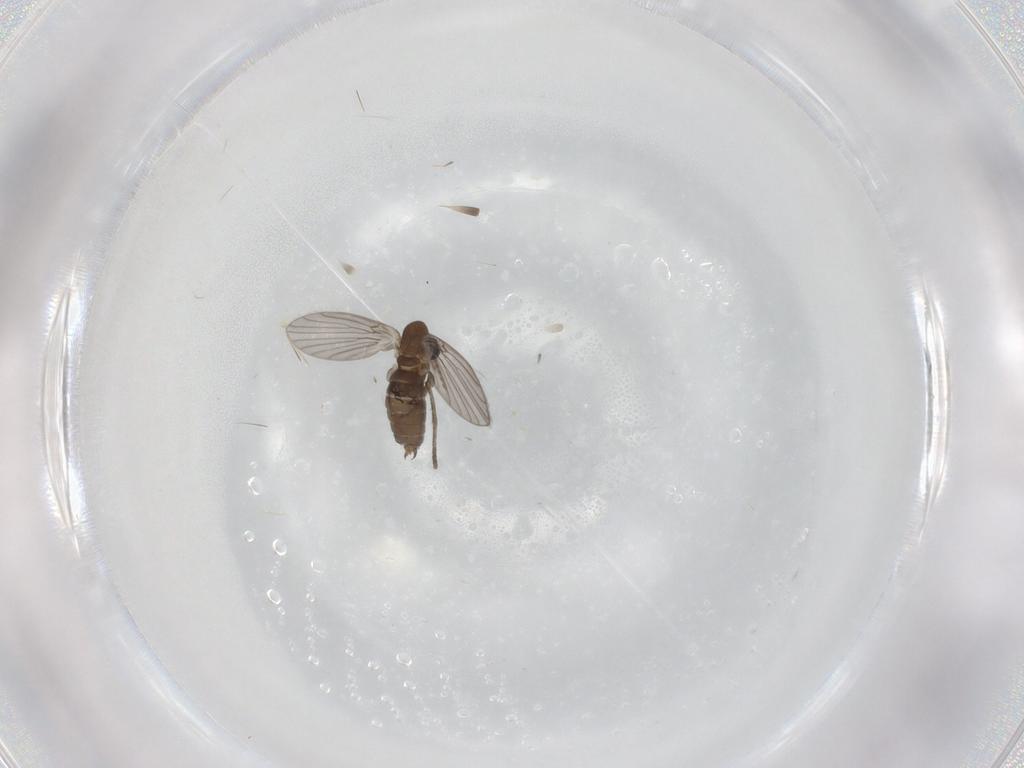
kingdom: Animalia
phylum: Arthropoda
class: Insecta
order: Diptera
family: Psychodidae
